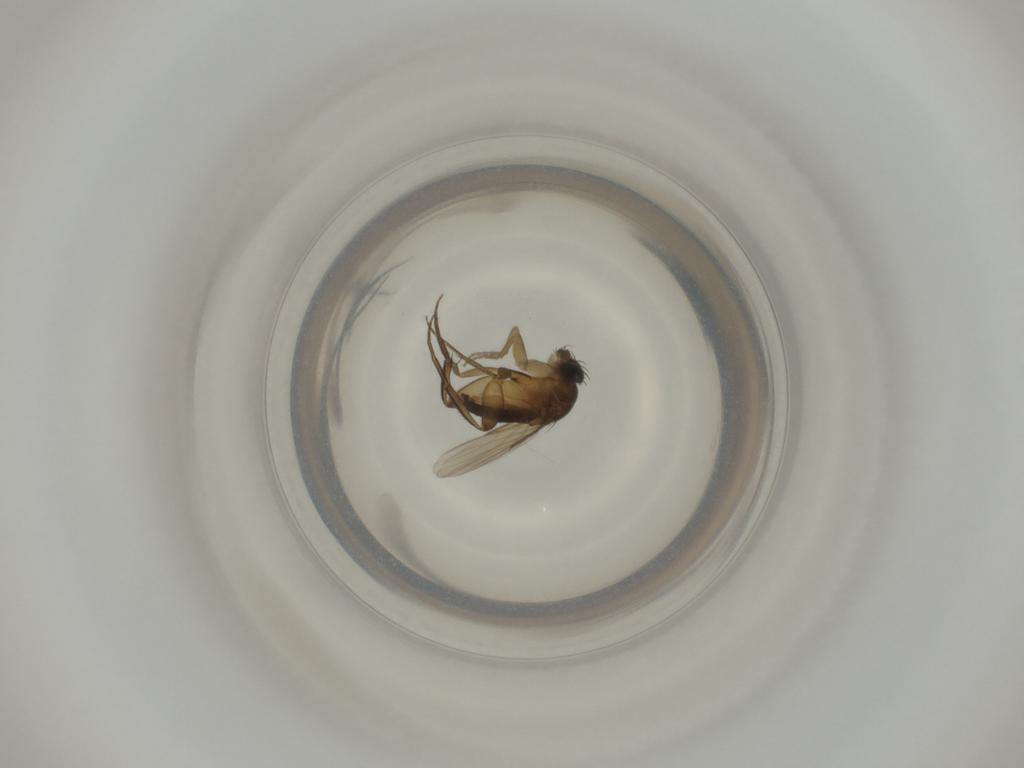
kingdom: Animalia
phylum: Arthropoda
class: Insecta
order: Diptera
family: Phoridae
